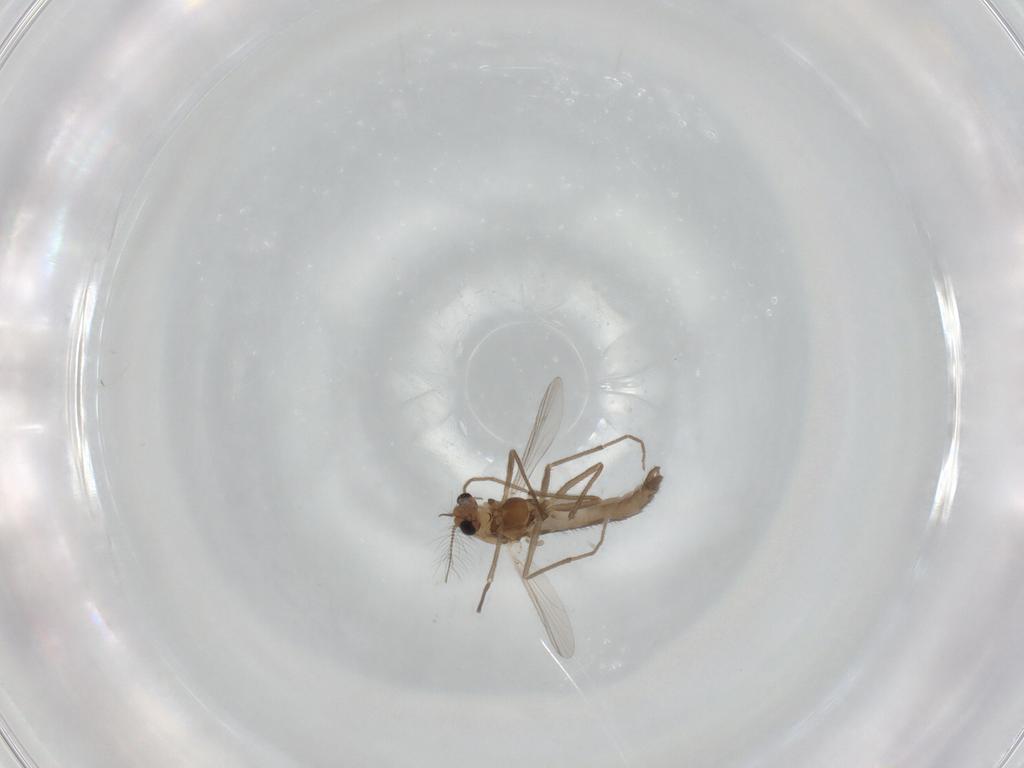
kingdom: Animalia
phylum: Arthropoda
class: Insecta
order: Diptera
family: Chironomidae
